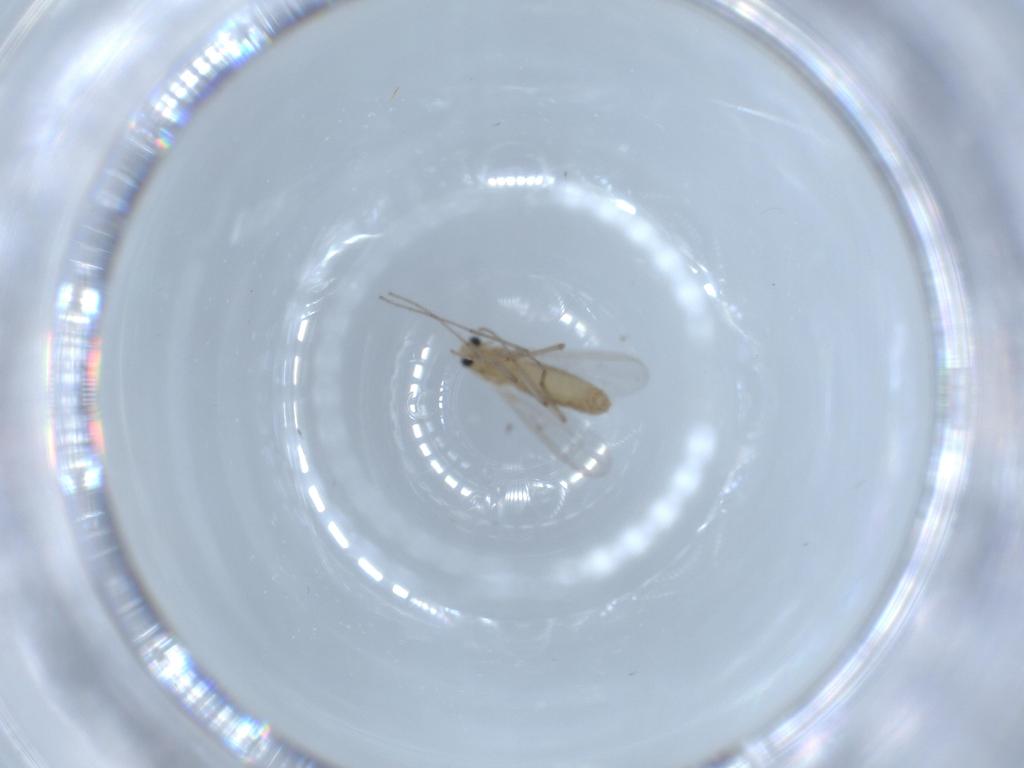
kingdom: Animalia
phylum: Arthropoda
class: Insecta
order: Diptera
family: Chironomidae
